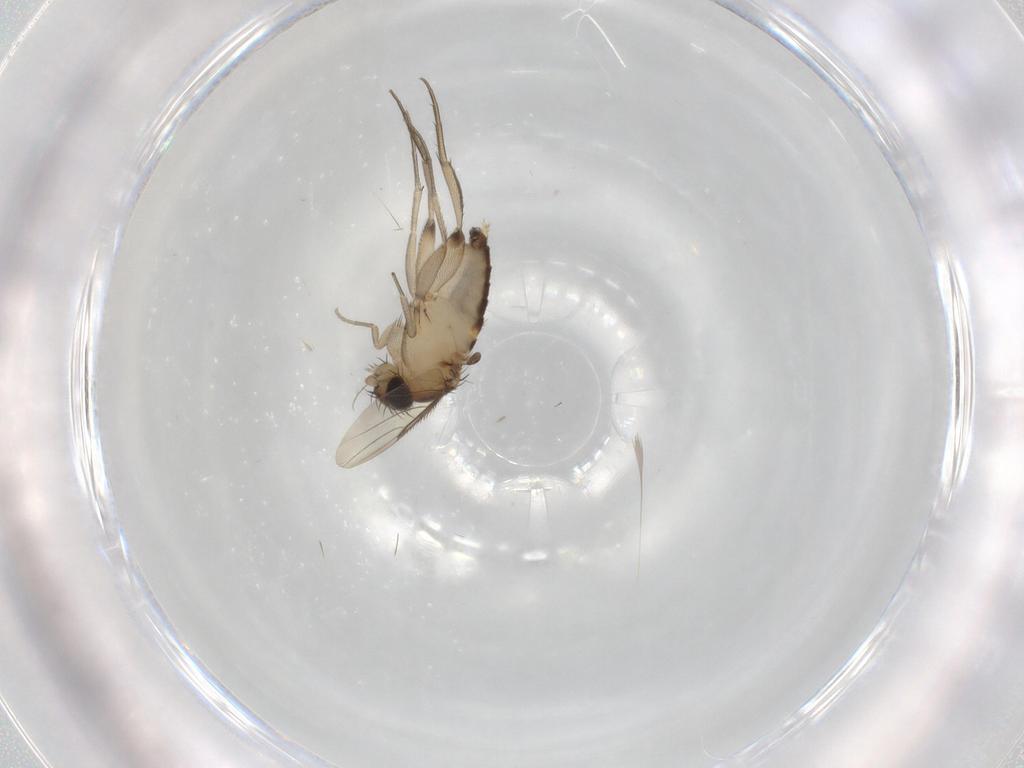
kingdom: Animalia
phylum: Arthropoda
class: Insecta
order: Diptera
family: Phoridae
